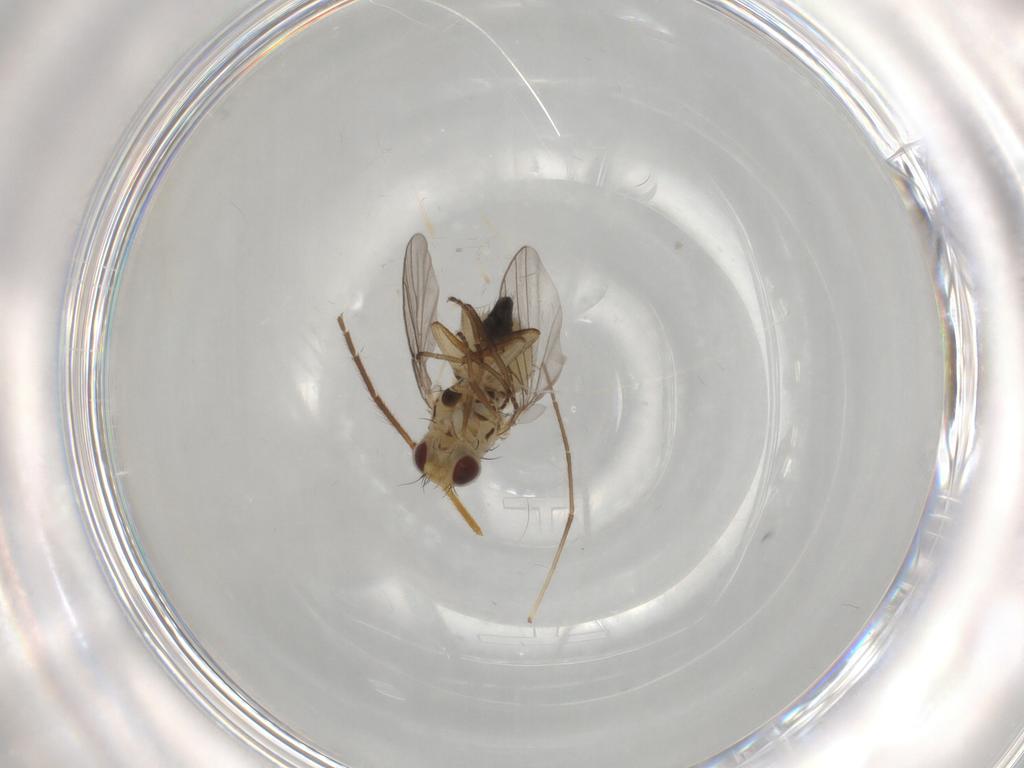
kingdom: Animalia
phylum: Arthropoda
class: Insecta
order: Diptera
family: Agromyzidae
